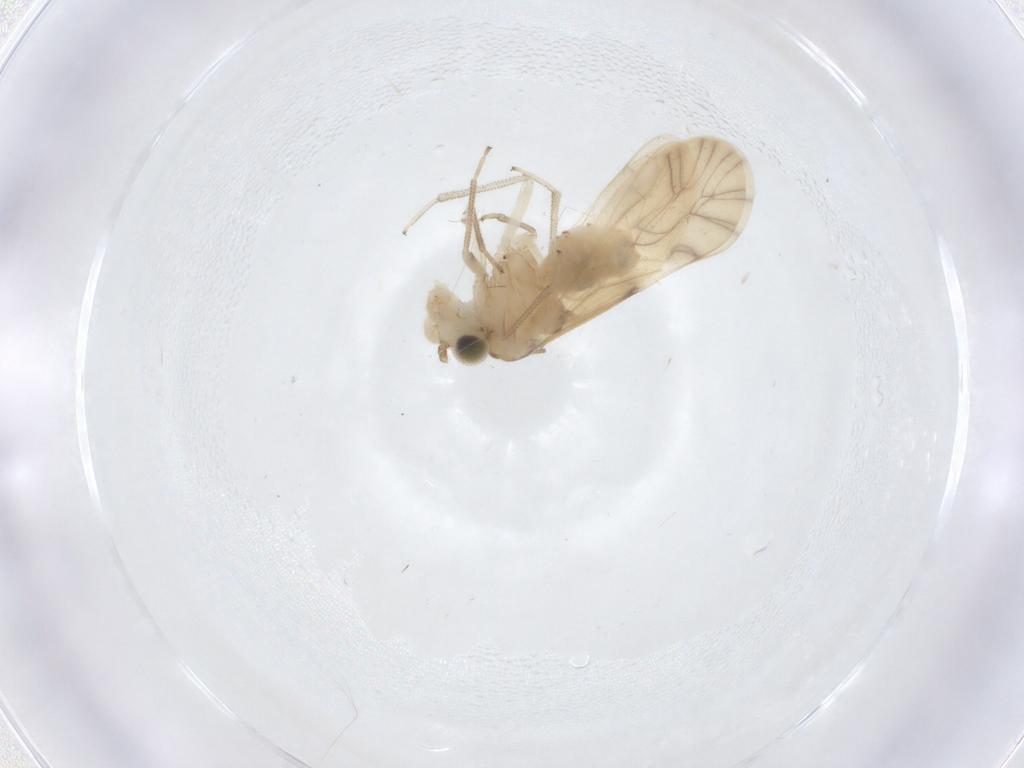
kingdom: Animalia
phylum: Arthropoda
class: Insecta
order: Psocodea
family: Caeciliusidae
